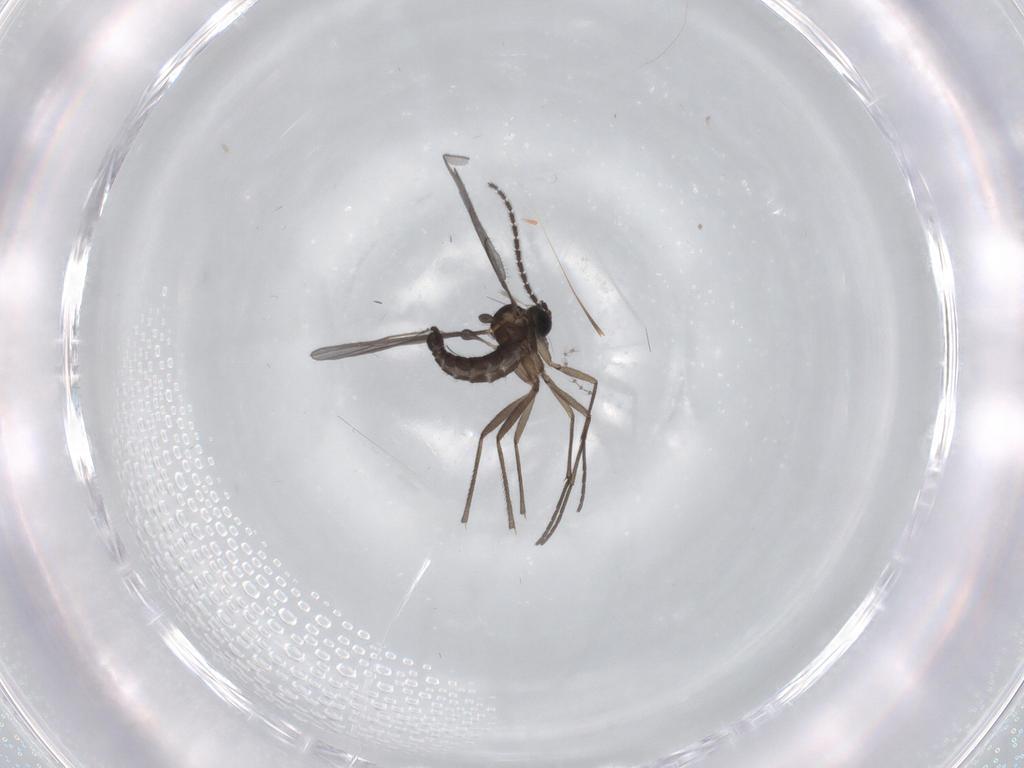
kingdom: Animalia
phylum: Arthropoda
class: Insecta
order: Diptera
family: Sciaridae
